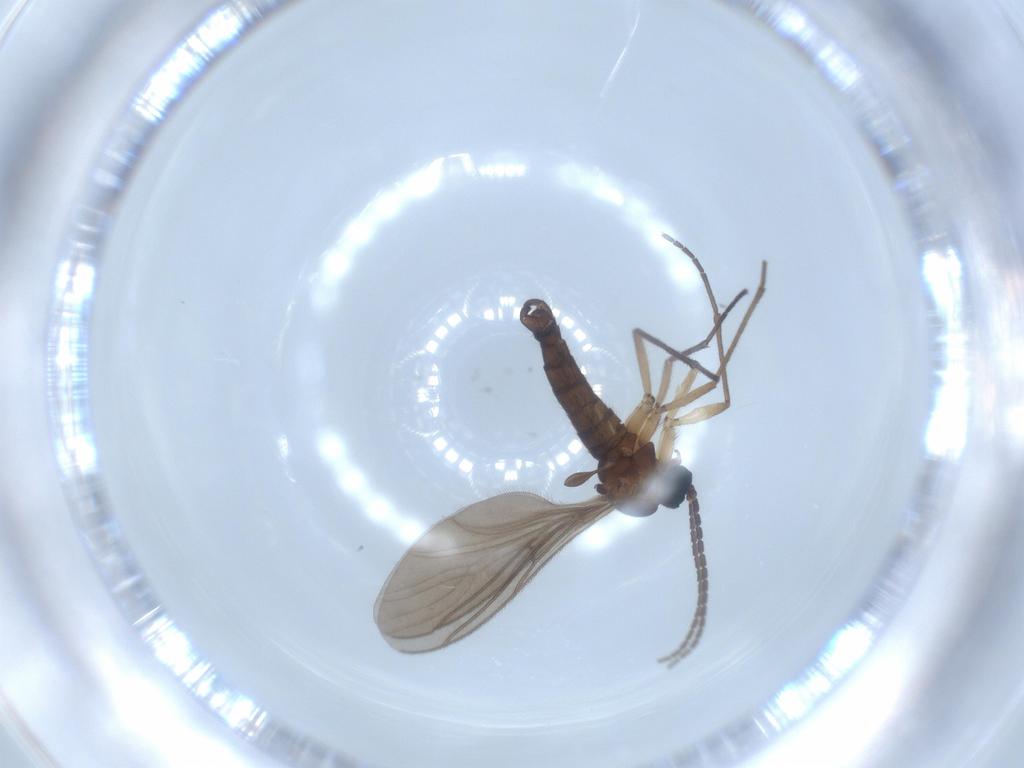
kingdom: Animalia
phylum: Arthropoda
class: Insecta
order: Diptera
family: Sciaridae
